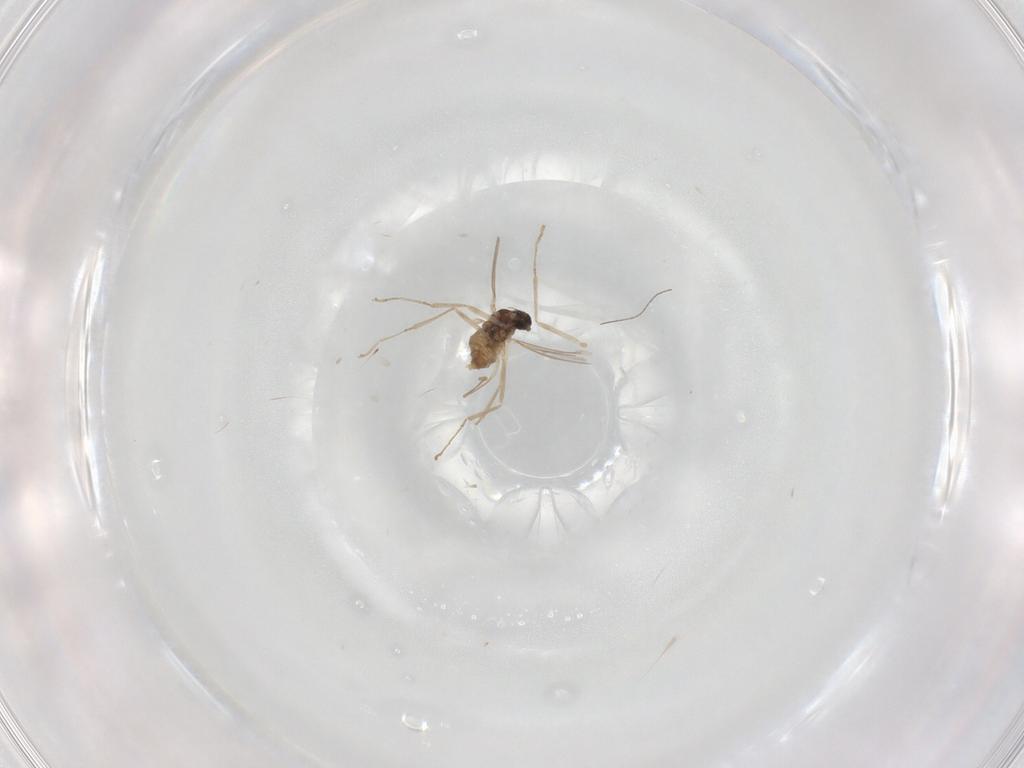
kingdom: Animalia
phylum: Arthropoda
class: Insecta
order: Diptera
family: Cecidomyiidae
